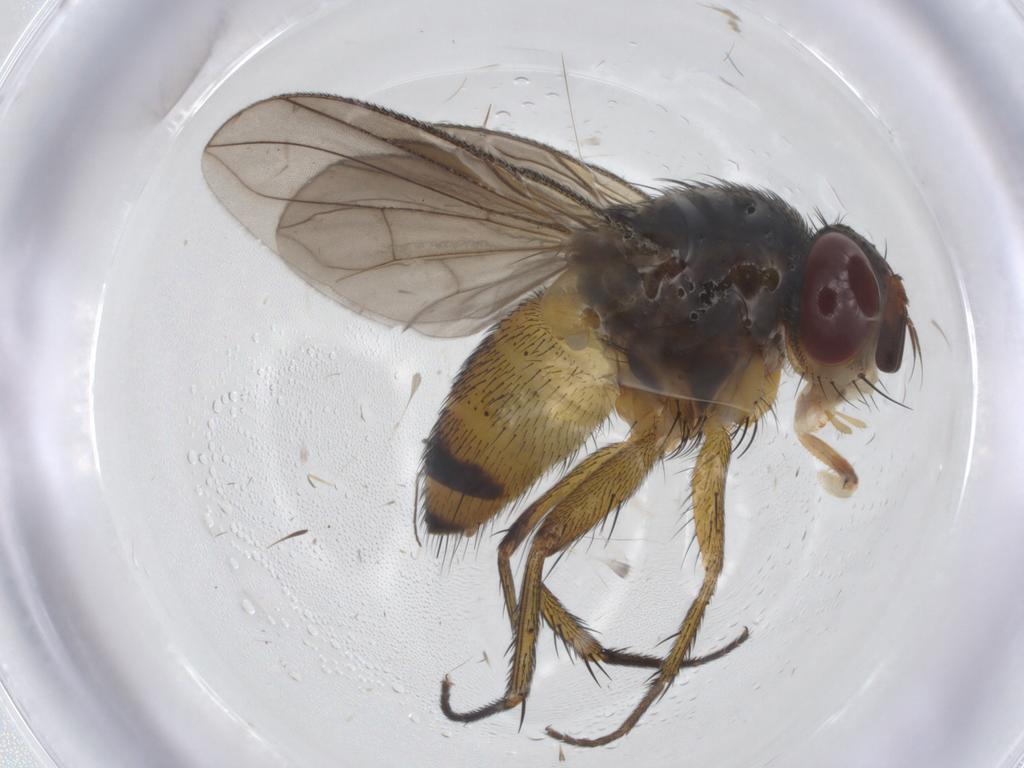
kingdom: Animalia
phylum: Arthropoda
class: Insecta
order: Diptera
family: Tachinidae
